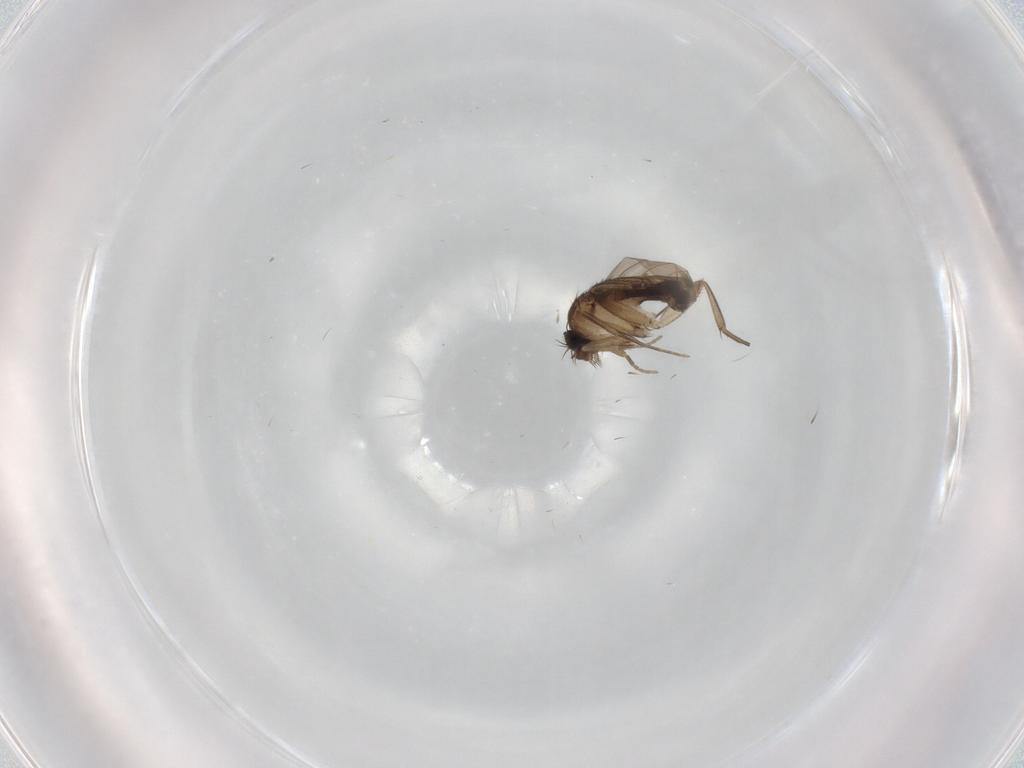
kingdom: Animalia
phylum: Arthropoda
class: Insecta
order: Diptera
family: Phoridae
